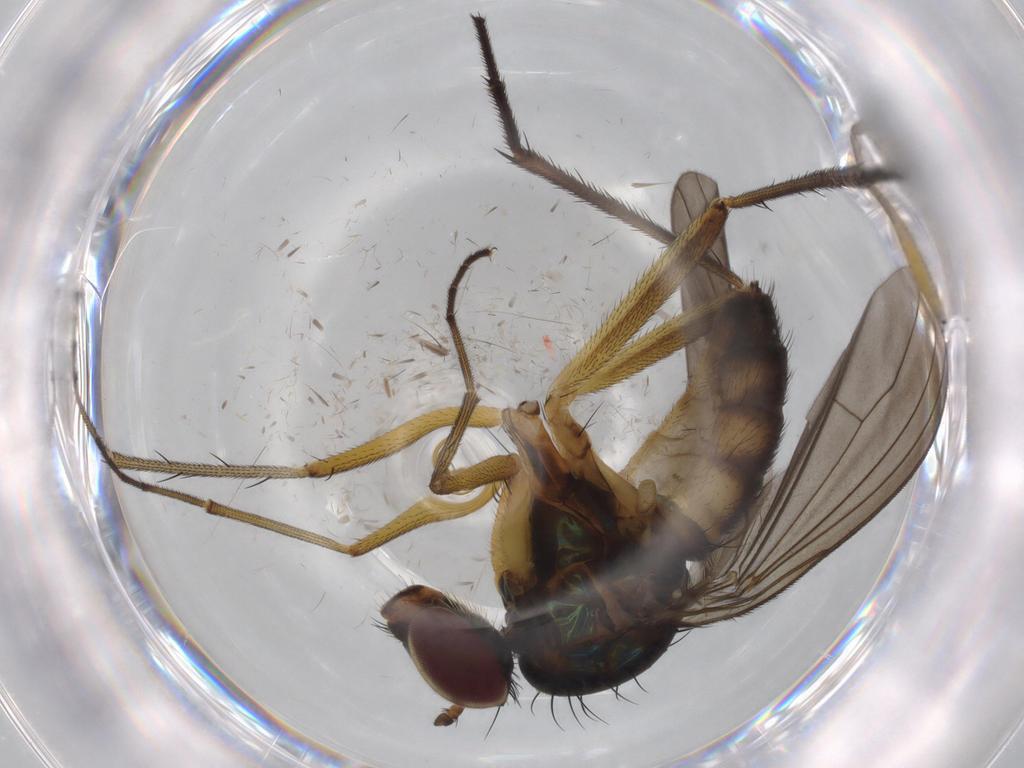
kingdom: Animalia
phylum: Arthropoda
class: Insecta
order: Diptera
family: Dolichopodidae
